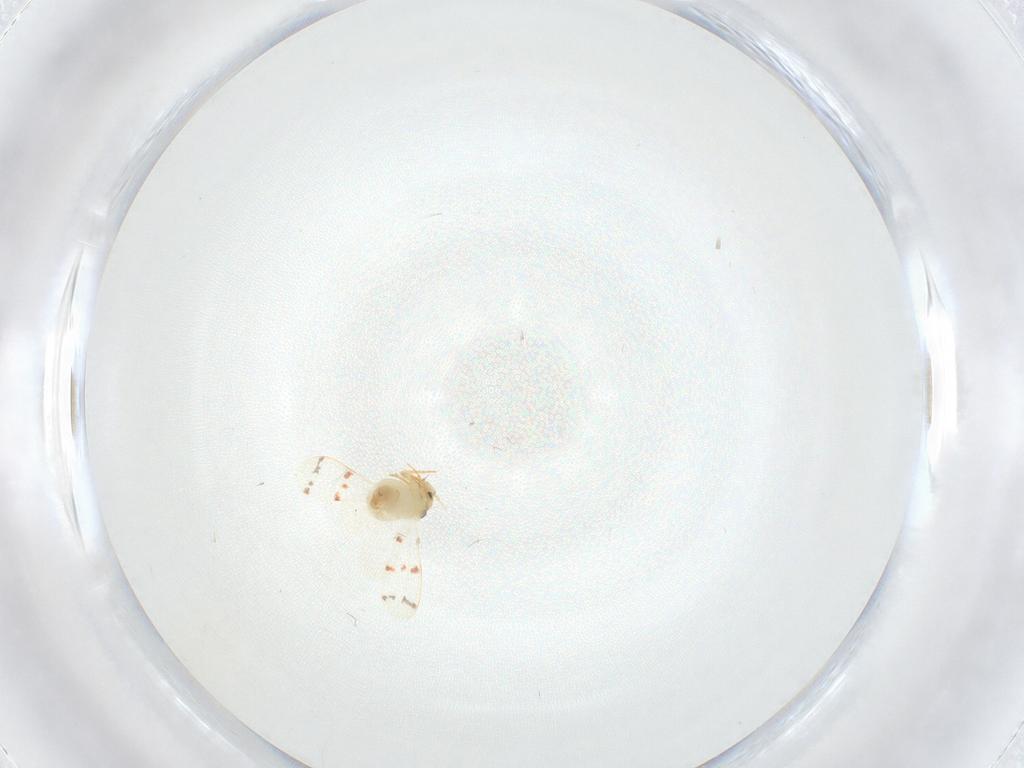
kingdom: Animalia
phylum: Arthropoda
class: Insecta
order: Hemiptera
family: Aleyrodidae
